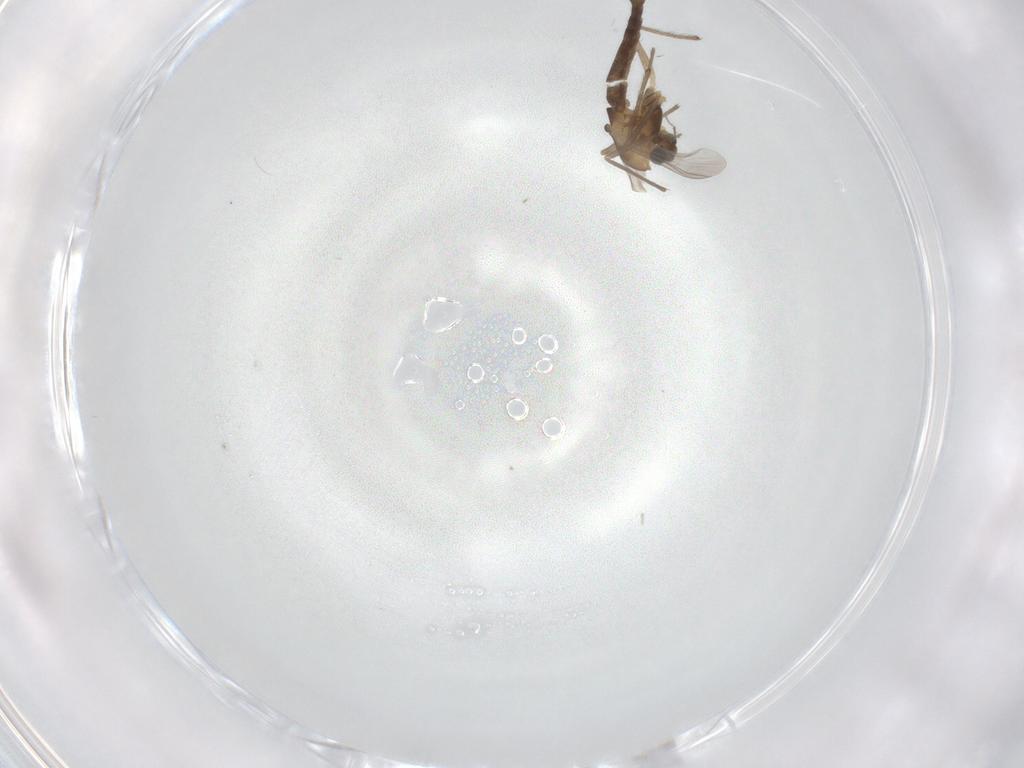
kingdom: Animalia
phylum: Arthropoda
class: Insecta
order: Diptera
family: Chironomidae
